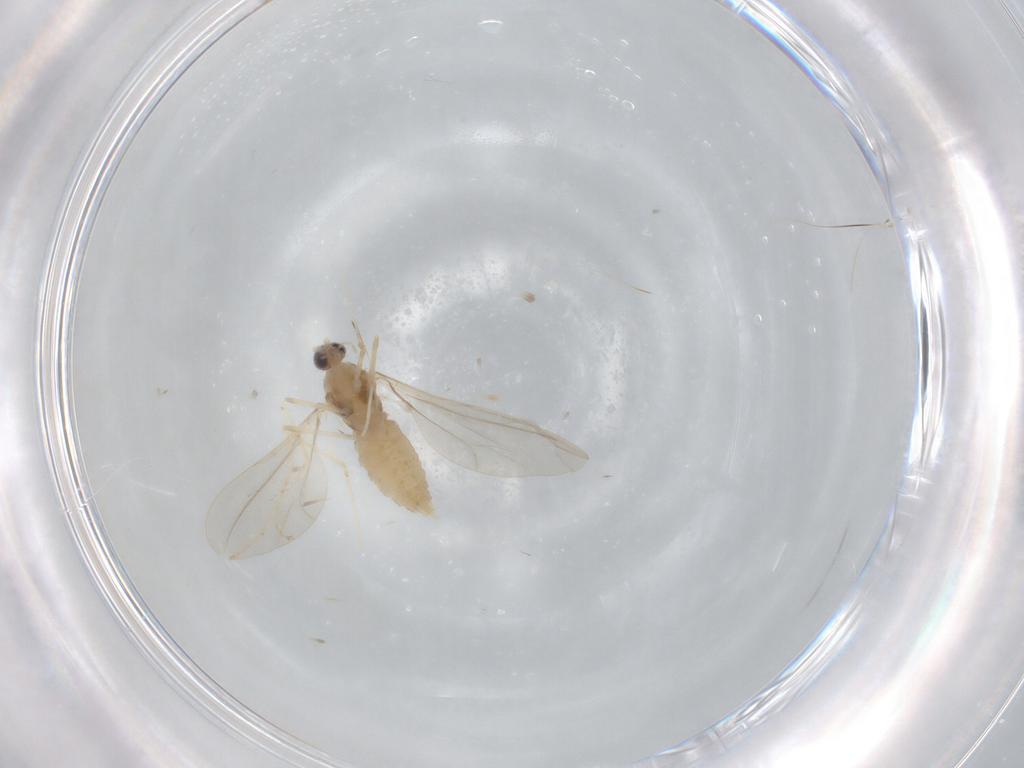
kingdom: Animalia
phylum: Arthropoda
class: Insecta
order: Diptera
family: Cecidomyiidae
